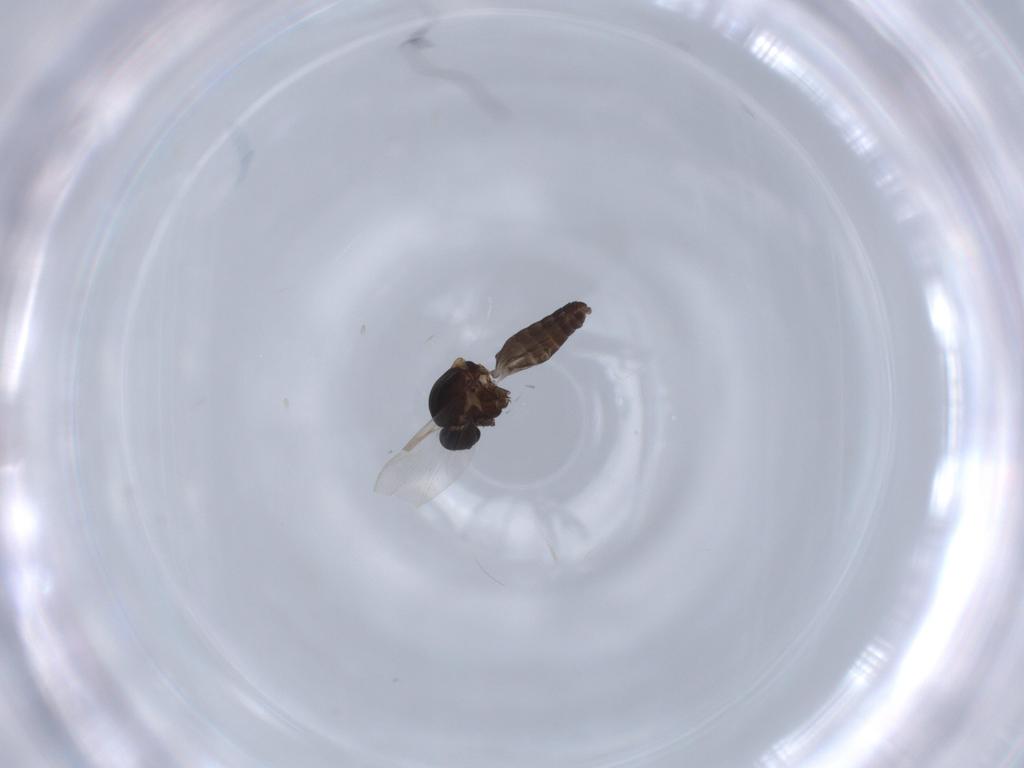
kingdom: Animalia
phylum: Arthropoda
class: Insecta
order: Diptera
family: Ceratopogonidae
